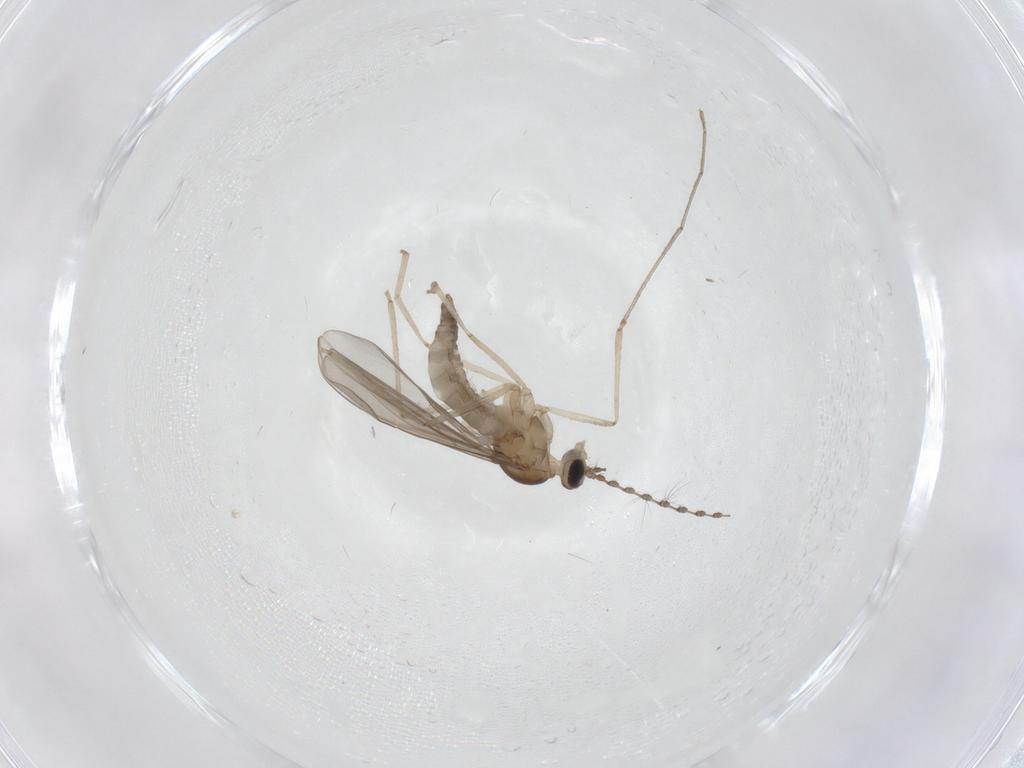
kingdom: Animalia
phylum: Arthropoda
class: Insecta
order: Diptera
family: Cecidomyiidae
